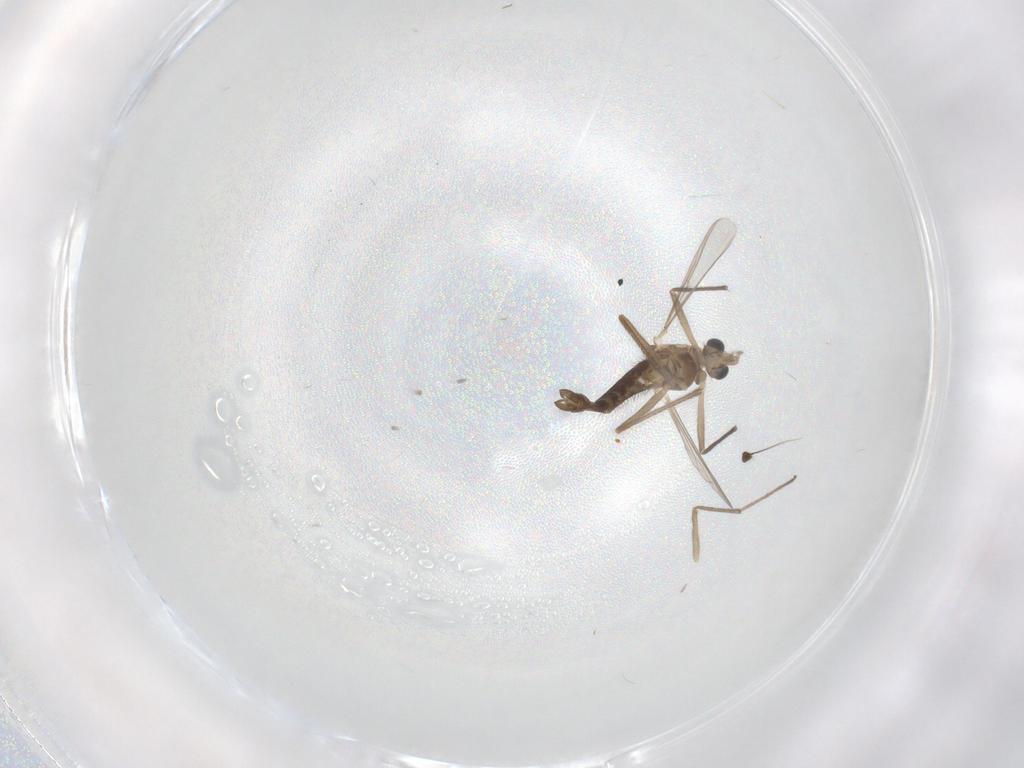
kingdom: Animalia
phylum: Arthropoda
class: Insecta
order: Diptera
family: Chironomidae
